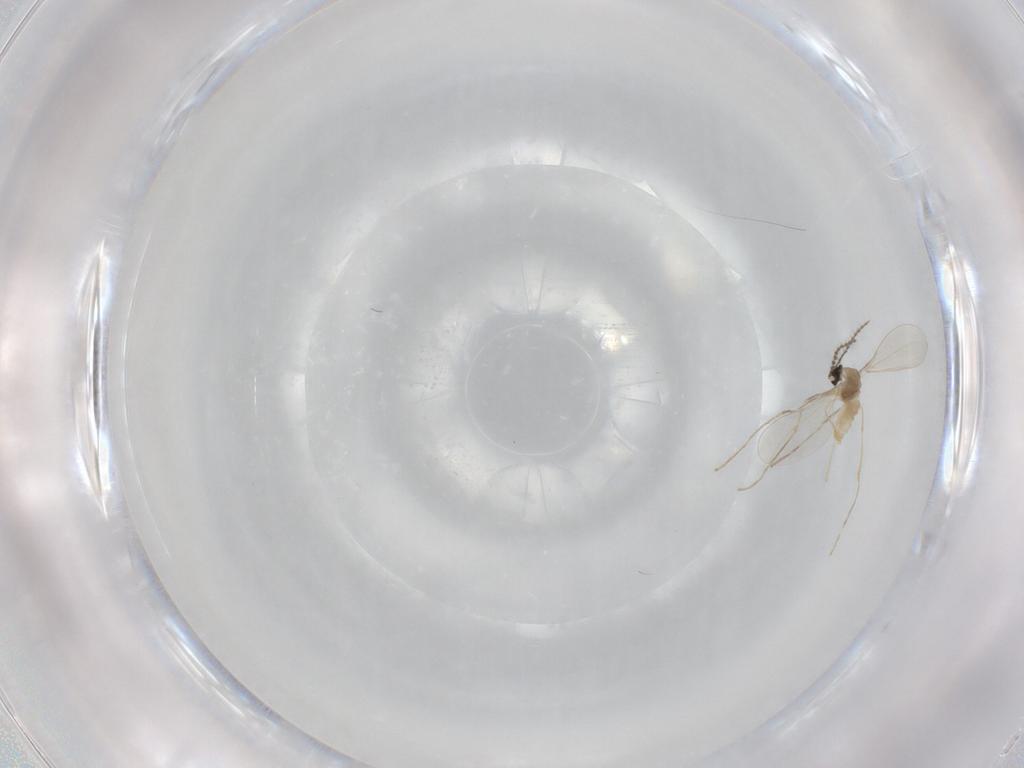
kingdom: Animalia
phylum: Arthropoda
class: Insecta
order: Diptera
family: Cecidomyiidae
